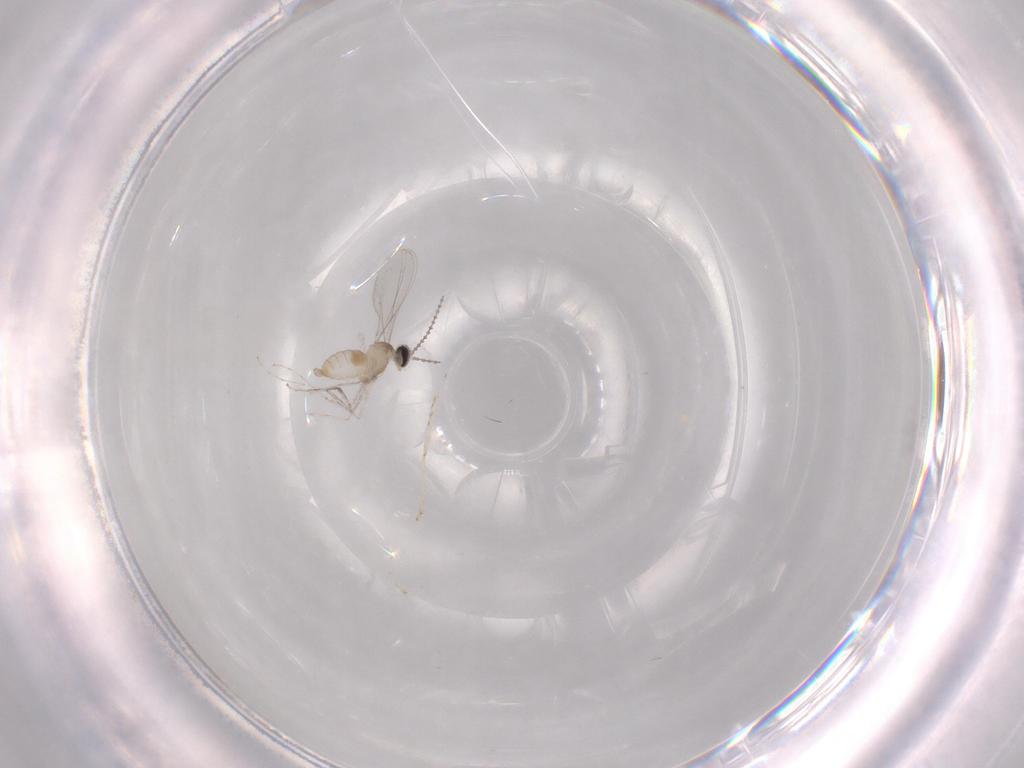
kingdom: Animalia
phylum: Arthropoda
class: Insecta
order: Diptera
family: Cecidomyiidae
